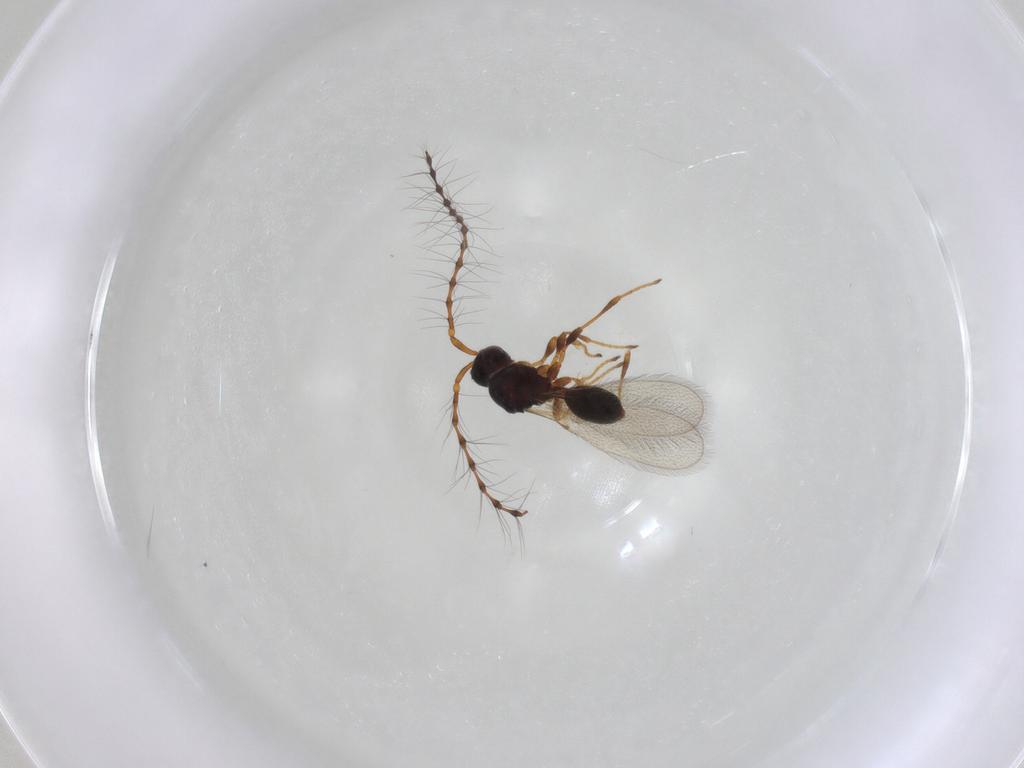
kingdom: Animalia
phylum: Arthropoda
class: Insecta
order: Hymenoptera
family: Diapriidae
